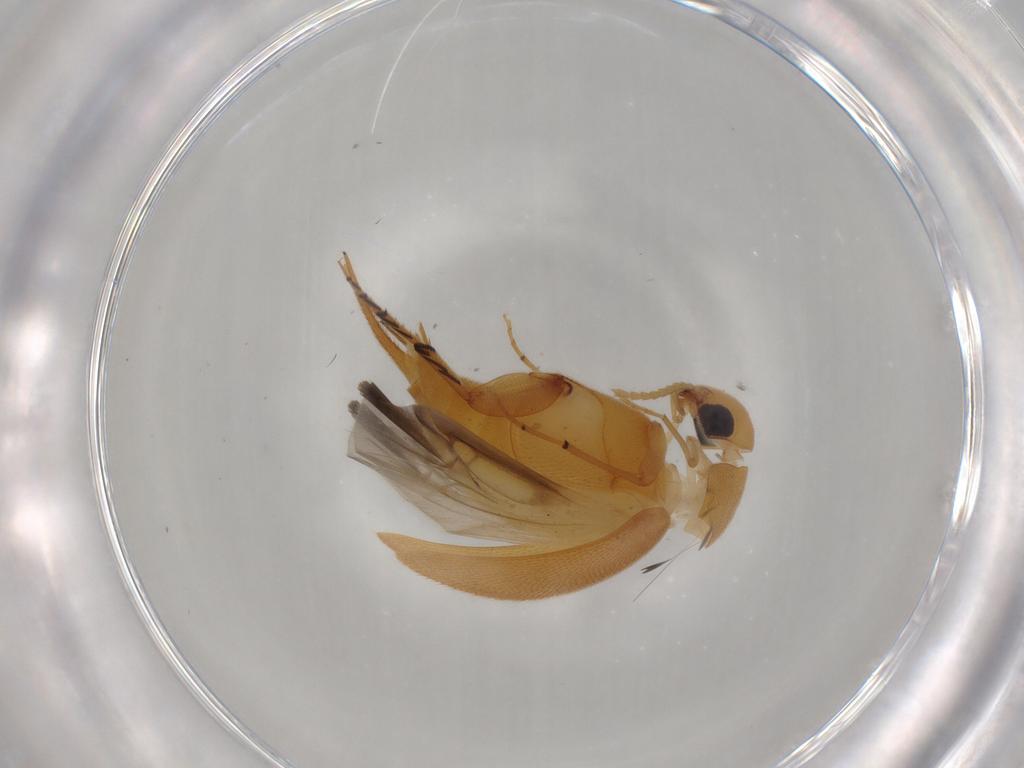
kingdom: Animalia
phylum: Arthropoda
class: Insecta
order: Coleoptera
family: Mordellidae
